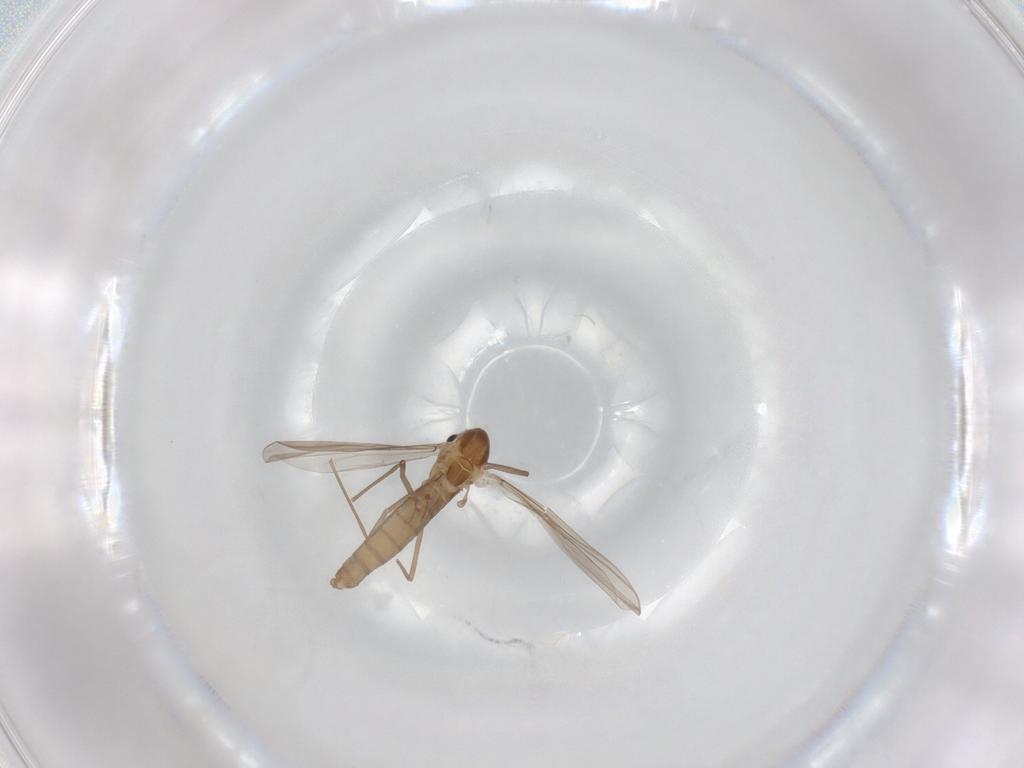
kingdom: Animalia
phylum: Arthropoda
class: Insecta
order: Diptera
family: Chironomidae
